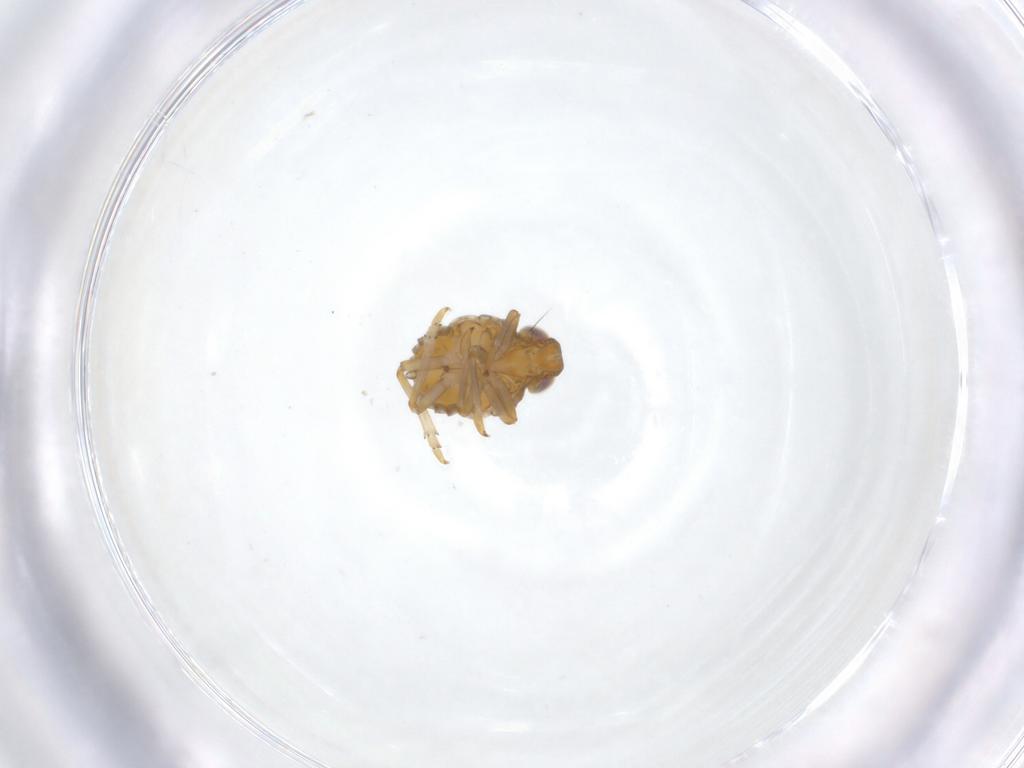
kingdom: Animalia
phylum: Arthropoda
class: Insecta
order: Hemiptera
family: Issidae
